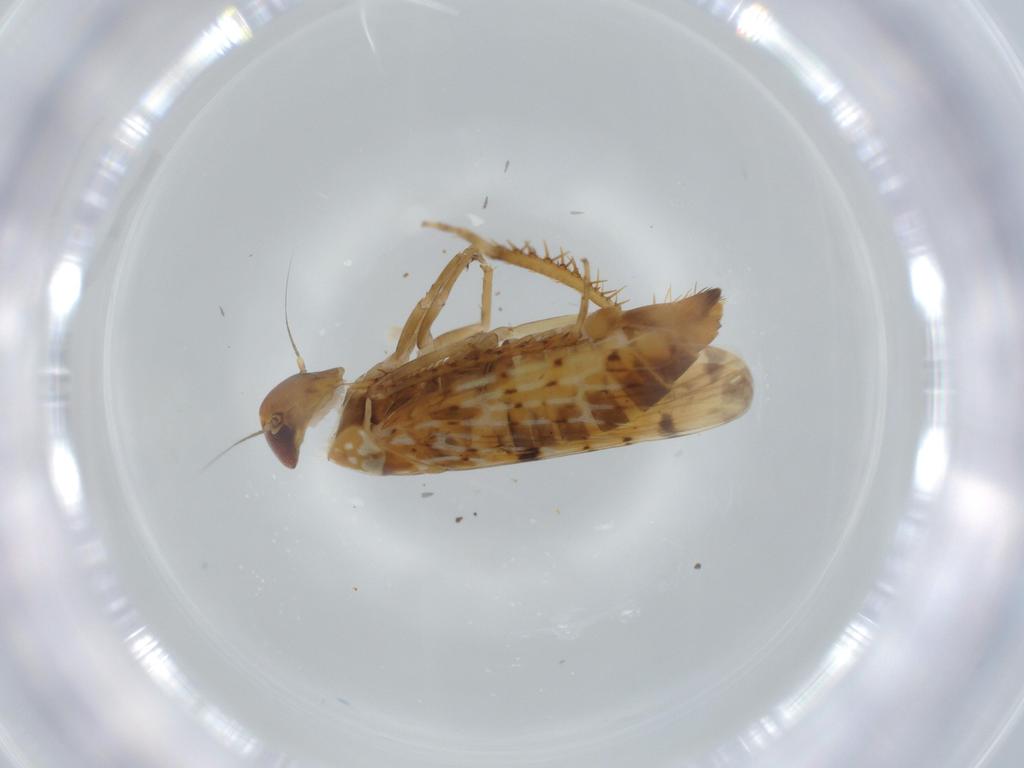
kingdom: Animalia
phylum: Arthropoda
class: Insecta
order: Hemiptera
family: Cicadellidae
